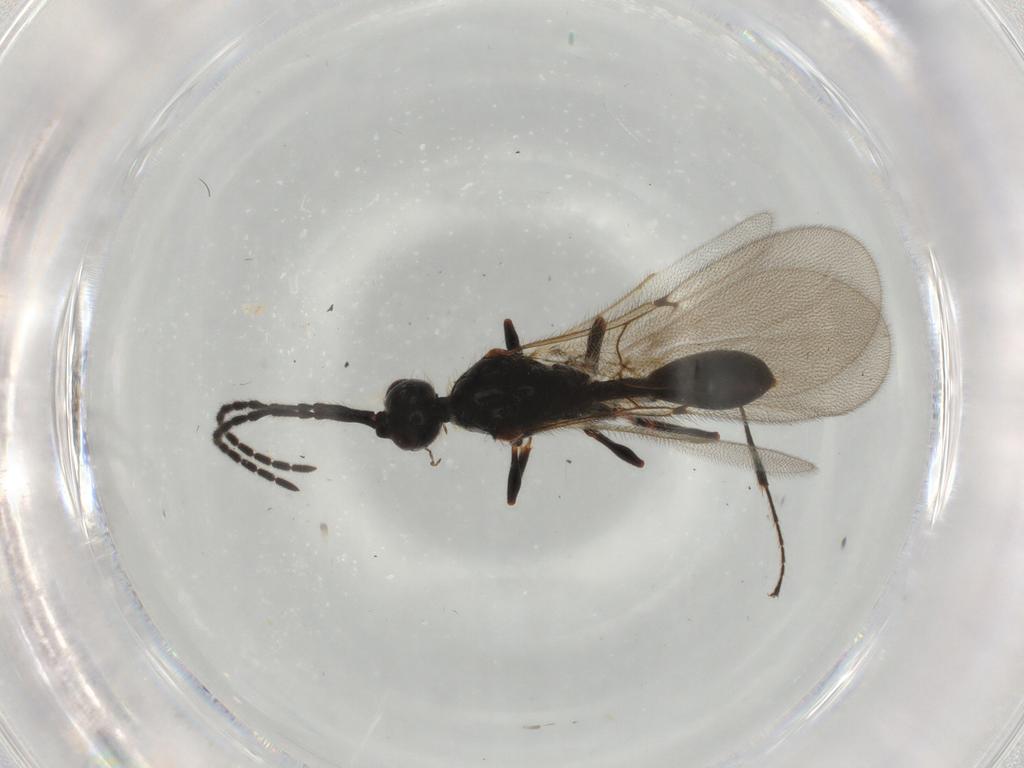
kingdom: Animalia
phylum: Arthropoda
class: Insecta
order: Hymenoptera
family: Diapriidae
